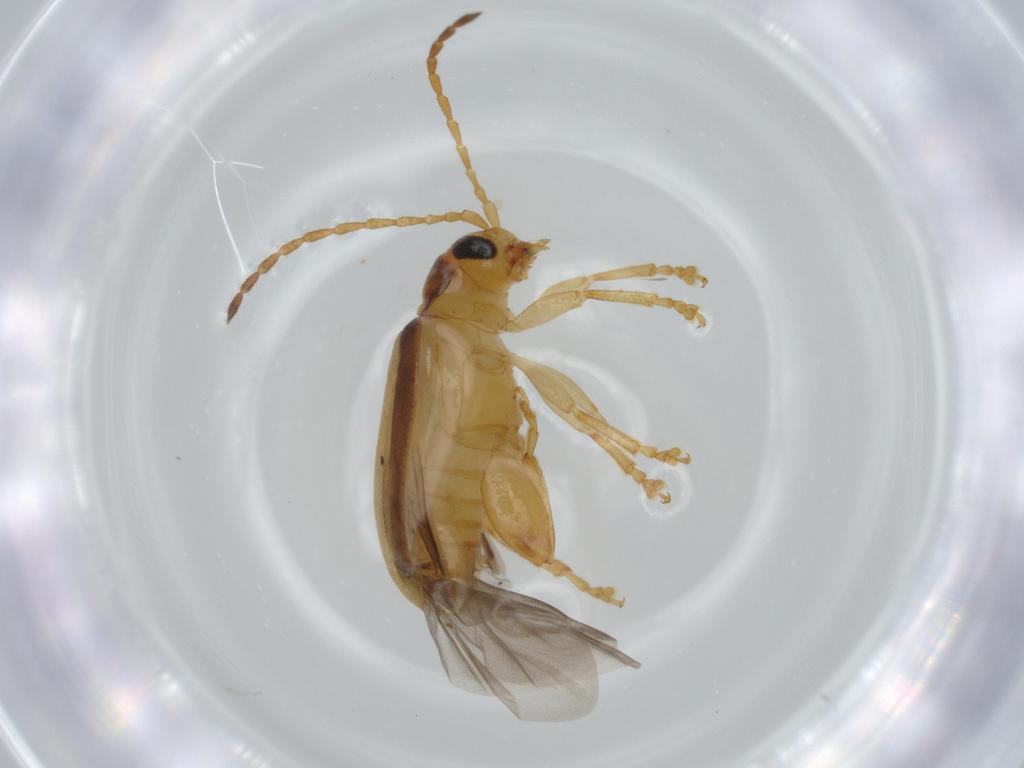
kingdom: Animalia
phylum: Arthropoda
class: Insecta
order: Coleoptera
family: Chrysomelidae
